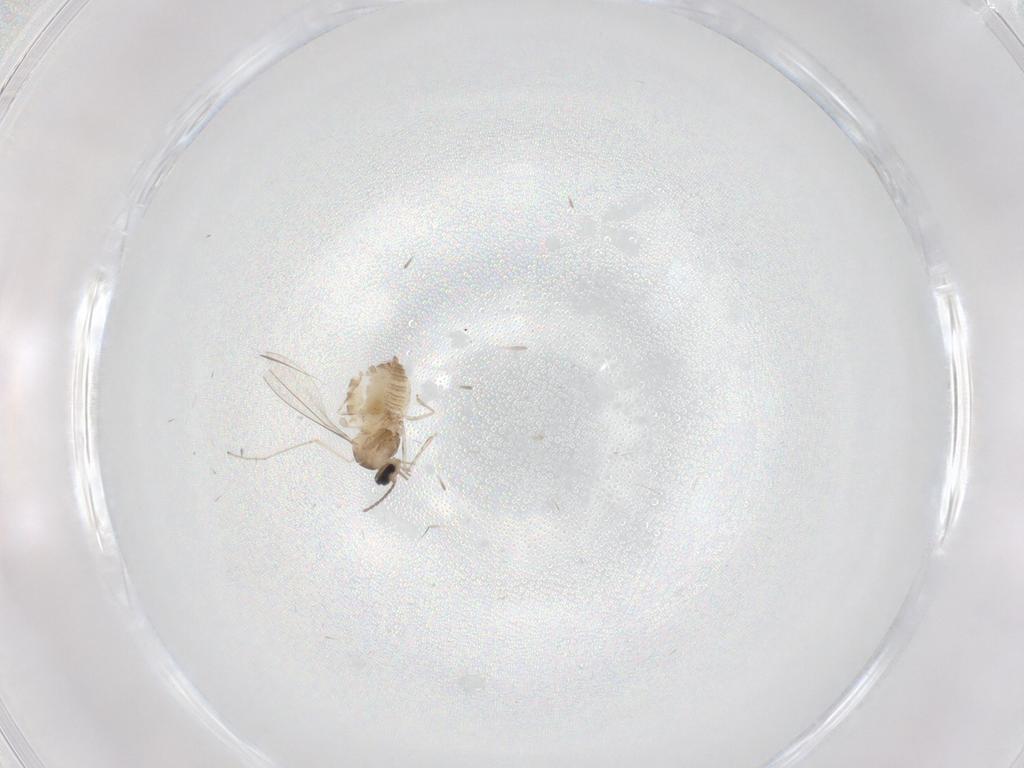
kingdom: Animalia
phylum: Arthropoda
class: Insecta
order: Diptera
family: Cecidomyiidae
